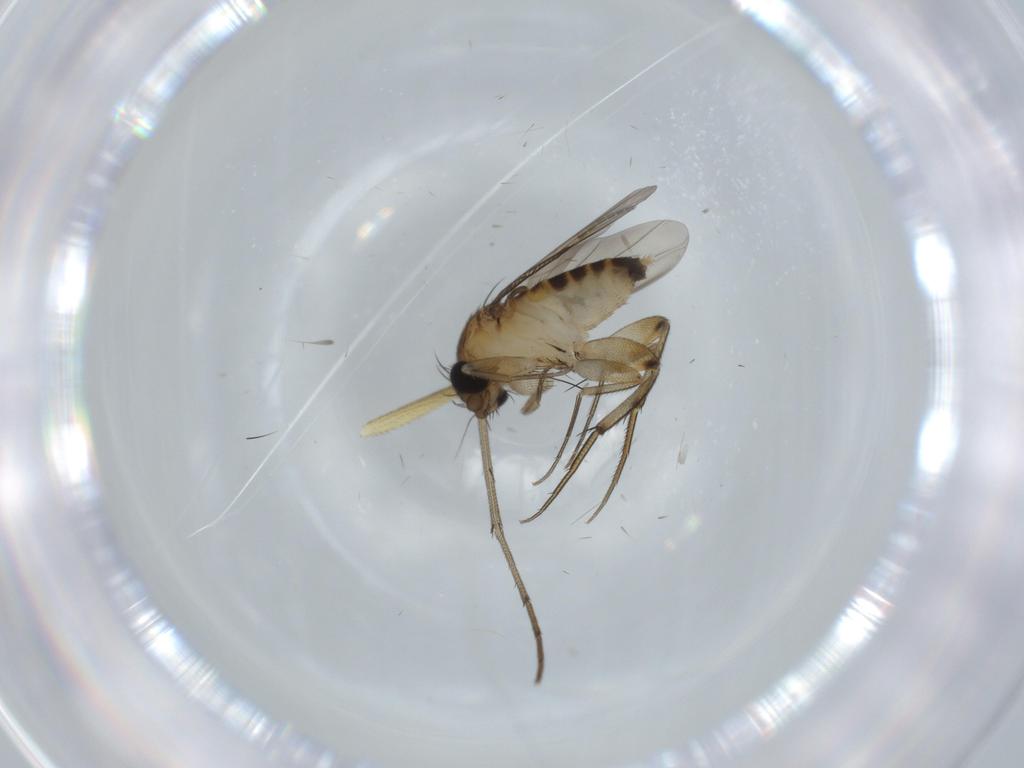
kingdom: Animalia
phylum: Arthropoda
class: Insecta
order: Diptera
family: Phoridae
